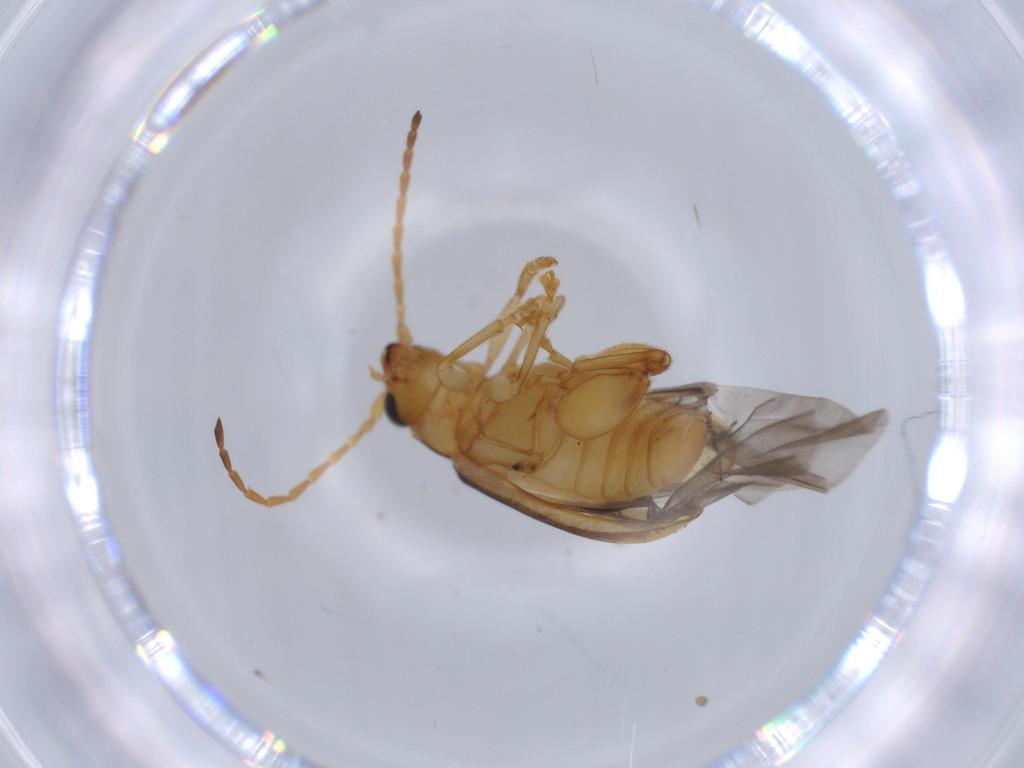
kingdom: Animalia
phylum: Arthropoda
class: Insecta
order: Coleoptera
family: Chrysomelidae
